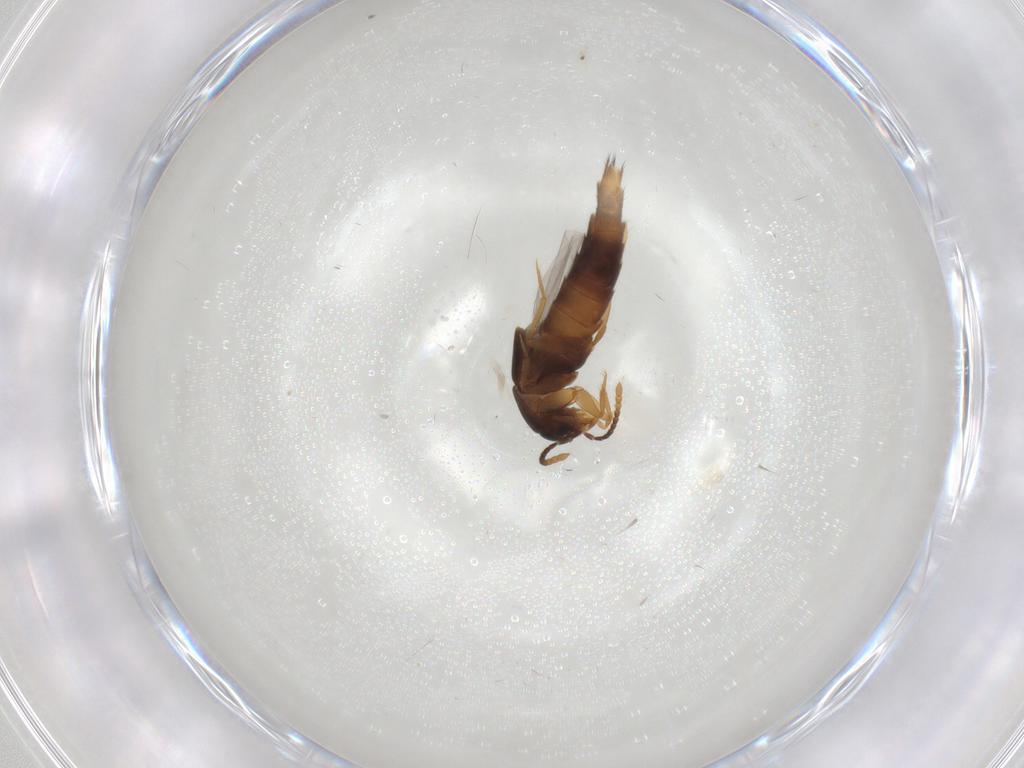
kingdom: Animalia
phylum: Arthropoda
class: Insecta
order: Coleoptera
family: Staphylinidae
